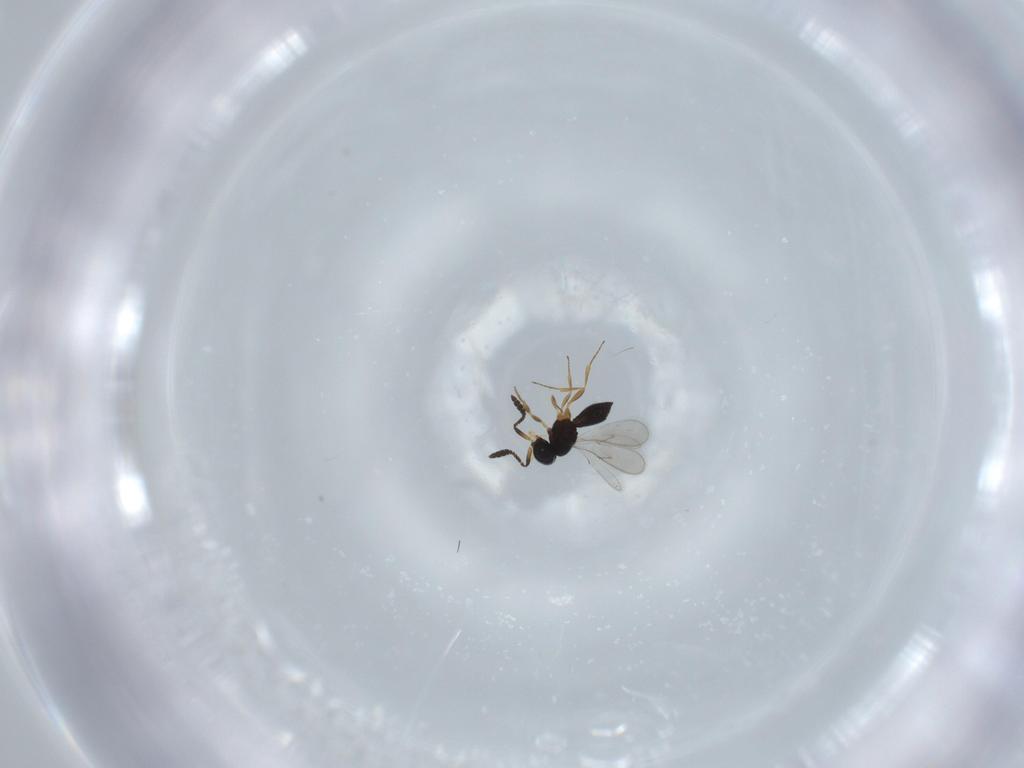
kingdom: Animalia
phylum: Arthropoda
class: Insecta
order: Hymenoptera
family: Scelionidae
